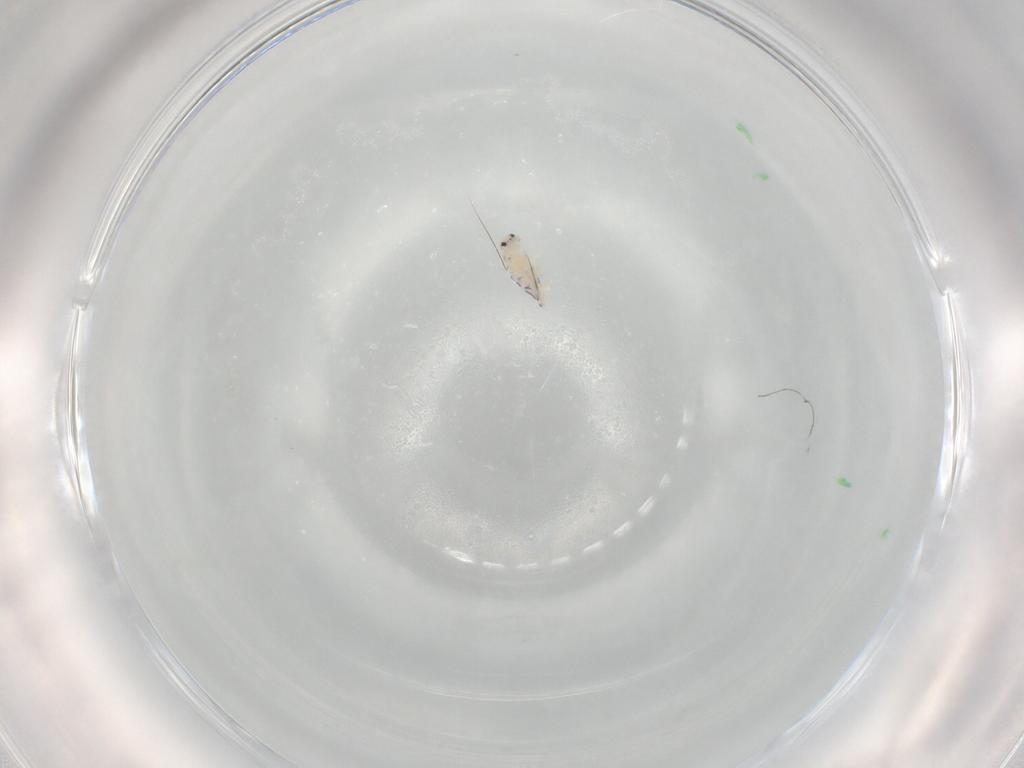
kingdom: Animalia
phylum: Arthropoda
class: Collembola
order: Entomobryomorpha
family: Entomobryidae
